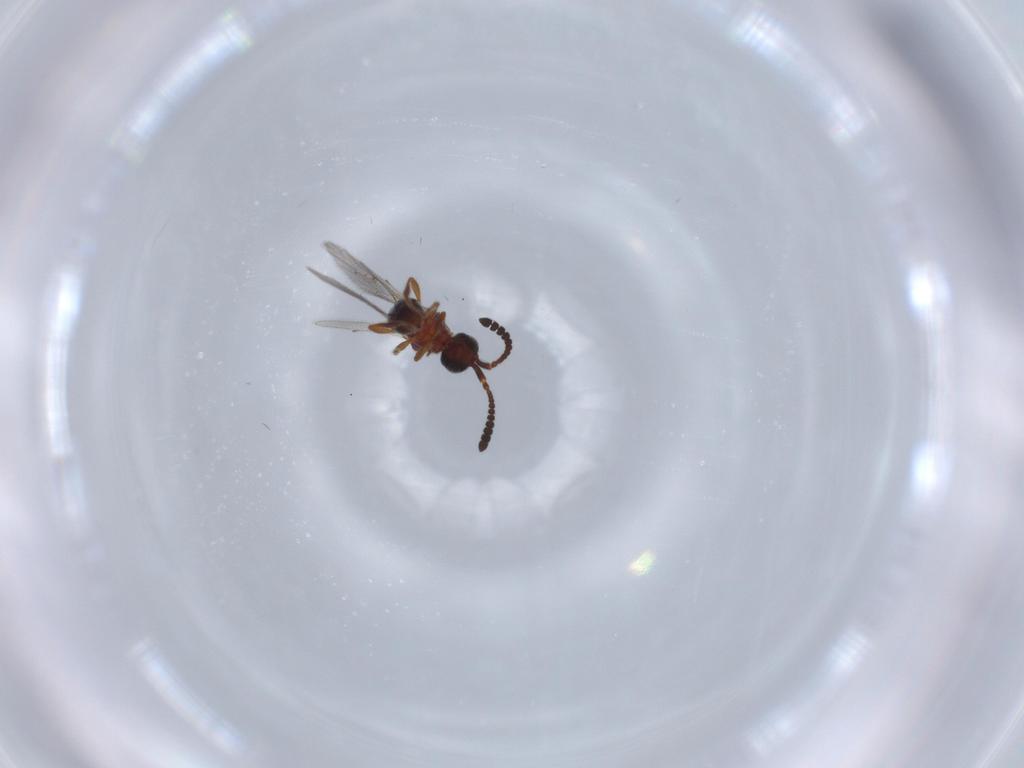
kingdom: Animalia
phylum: Arthropoda
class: Insecta
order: Hymenoptera
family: Diapriidae
